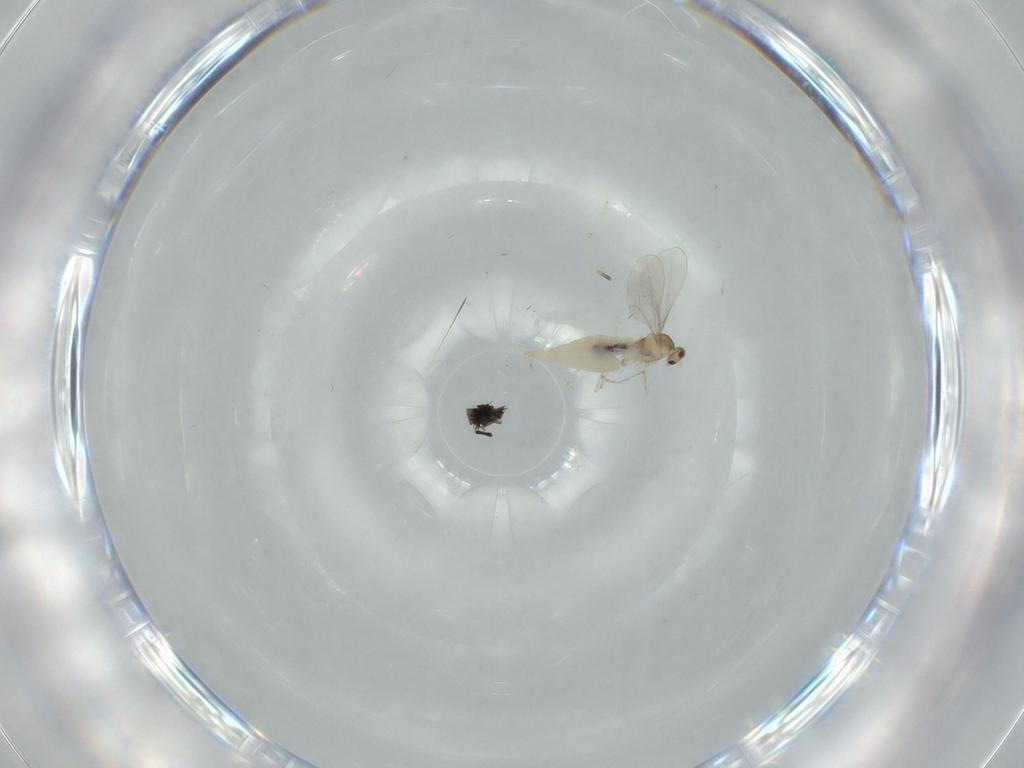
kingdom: Animalia
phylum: Arthropoda
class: Insecta
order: Diptera
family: Cecidomyiidae
